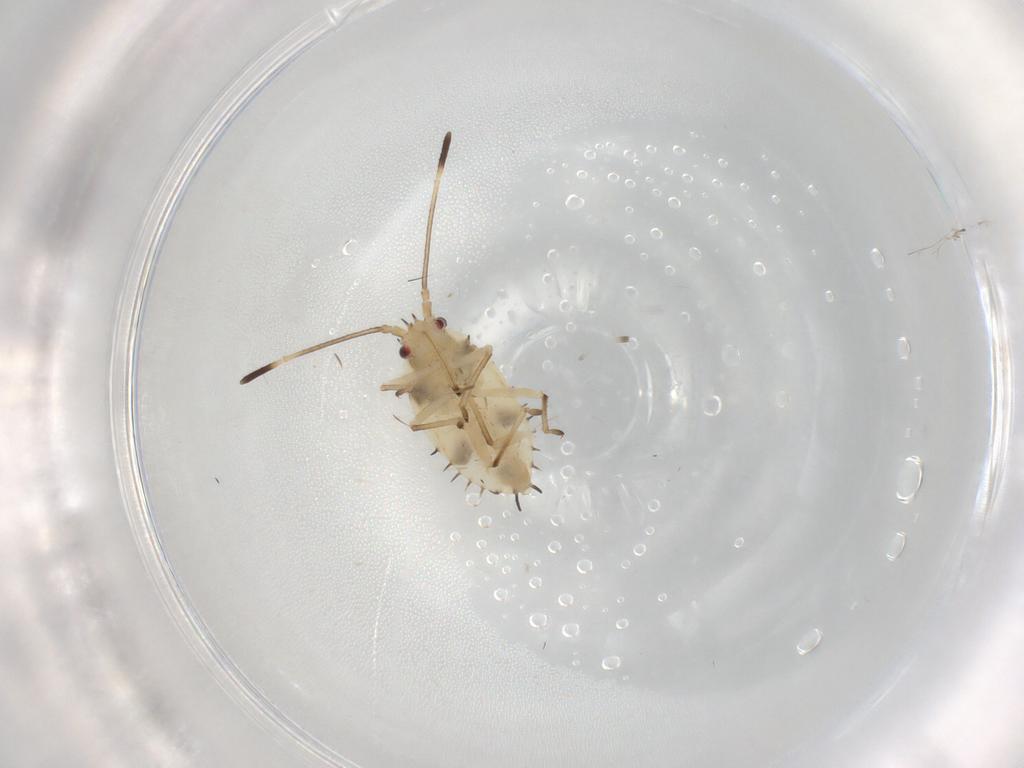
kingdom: Animalia
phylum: Arthropoda
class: Insecta
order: Hemiptera
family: Tingidae
